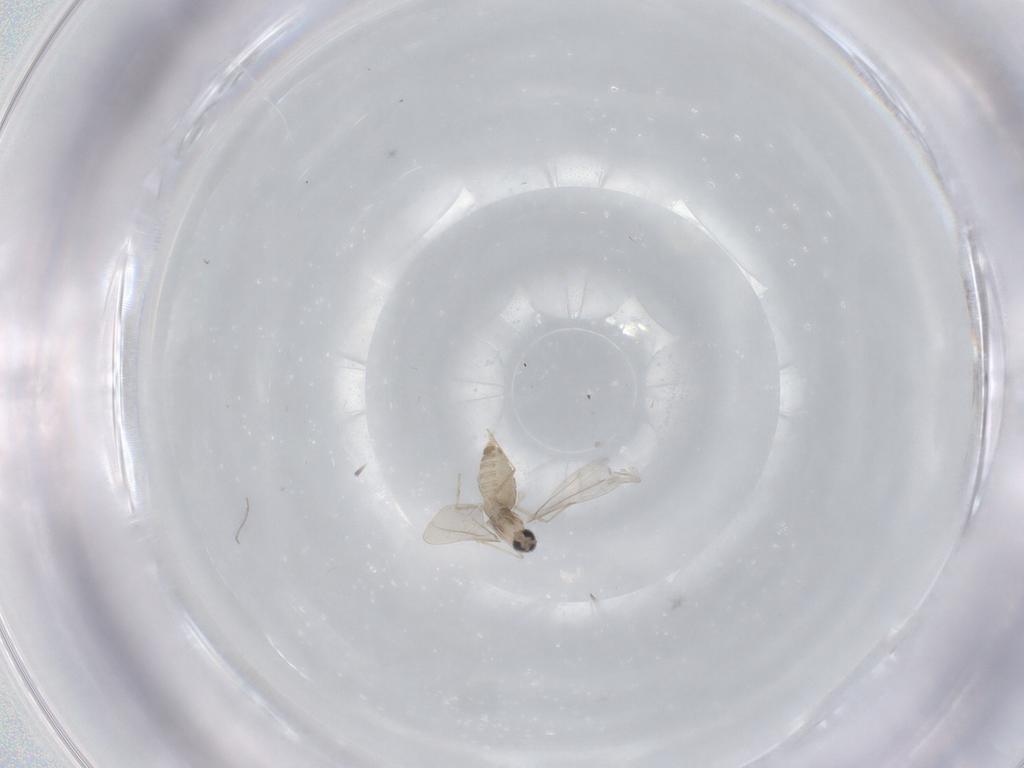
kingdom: Animalia
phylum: Arthropoda
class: Insecta
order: Diptera
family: Cecidomyiidae
